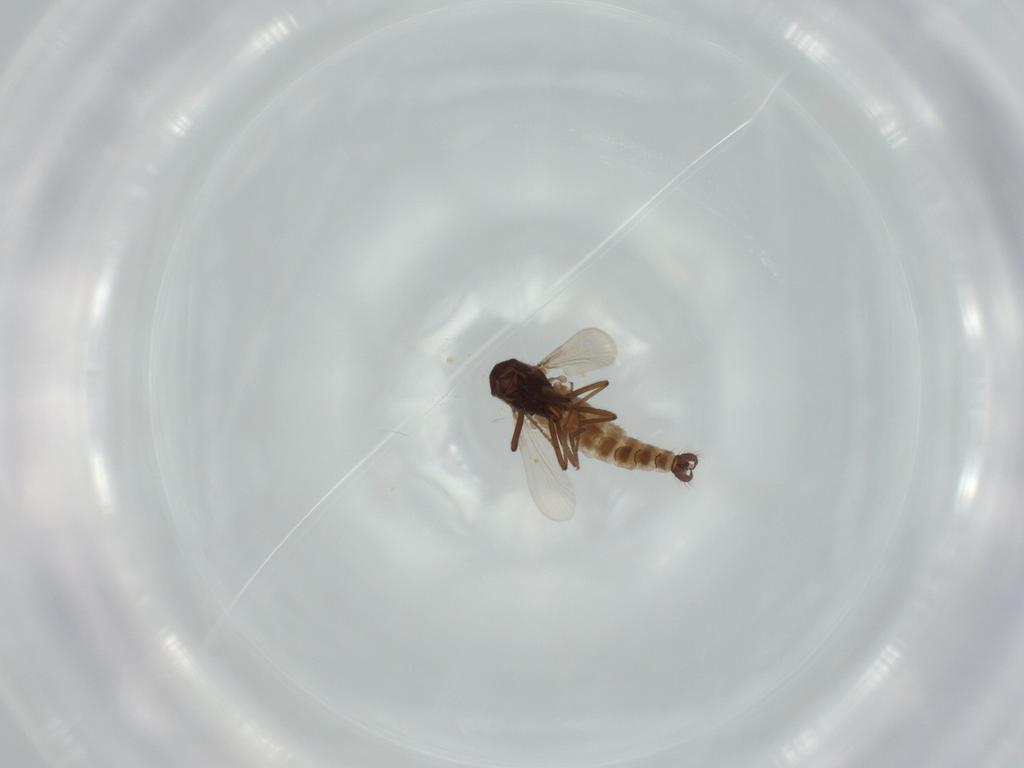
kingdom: Animalia
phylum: Arthropoda
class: Insecta
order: Diptera
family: Ceratopogonidae
